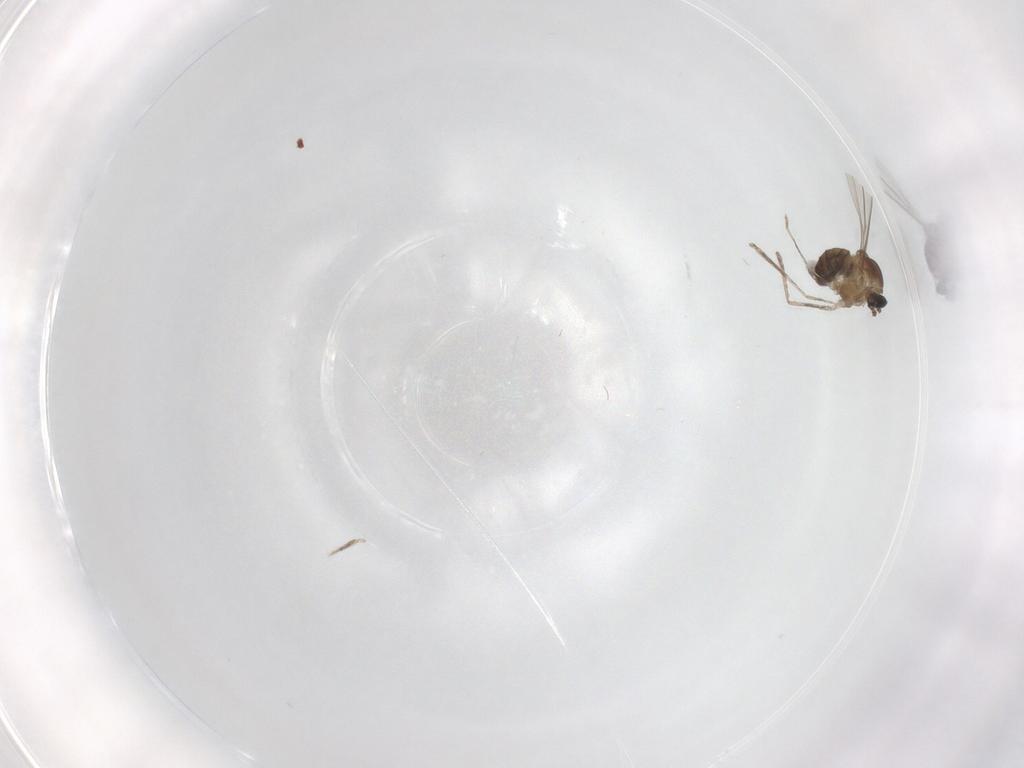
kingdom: Animalia
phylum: Arthropoda
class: Insecta
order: Diptera
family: Cecidomyiidae
